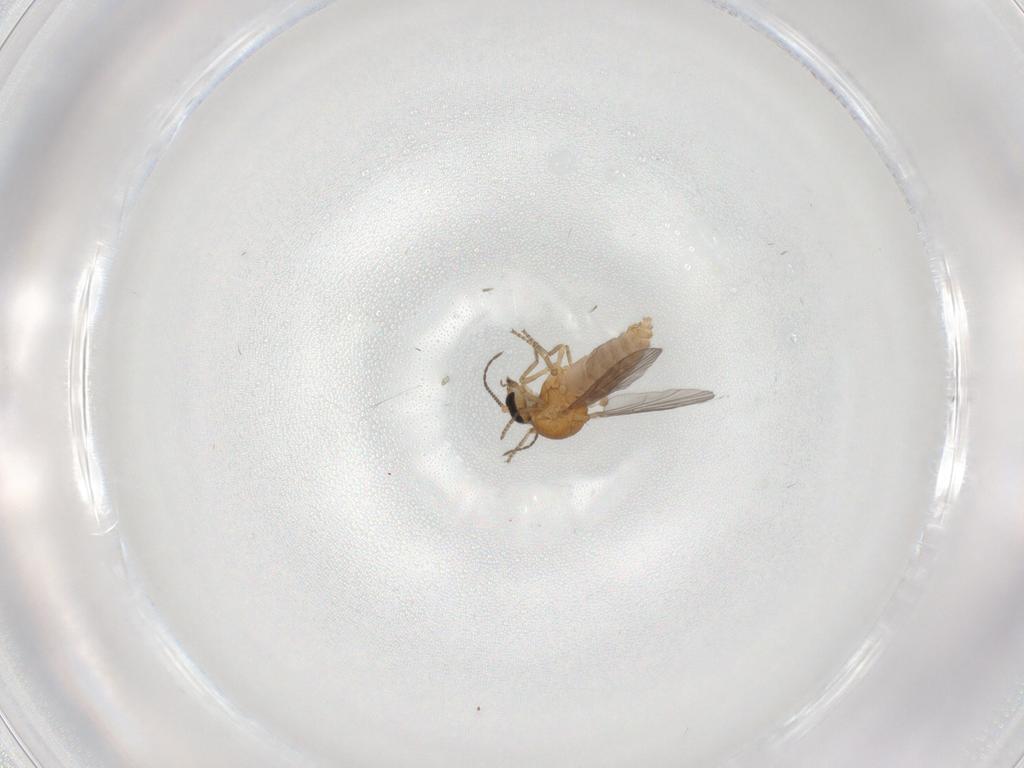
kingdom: Animalia
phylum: Arthropoda
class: Insecta
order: Diptera
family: Ceratopogonidae
